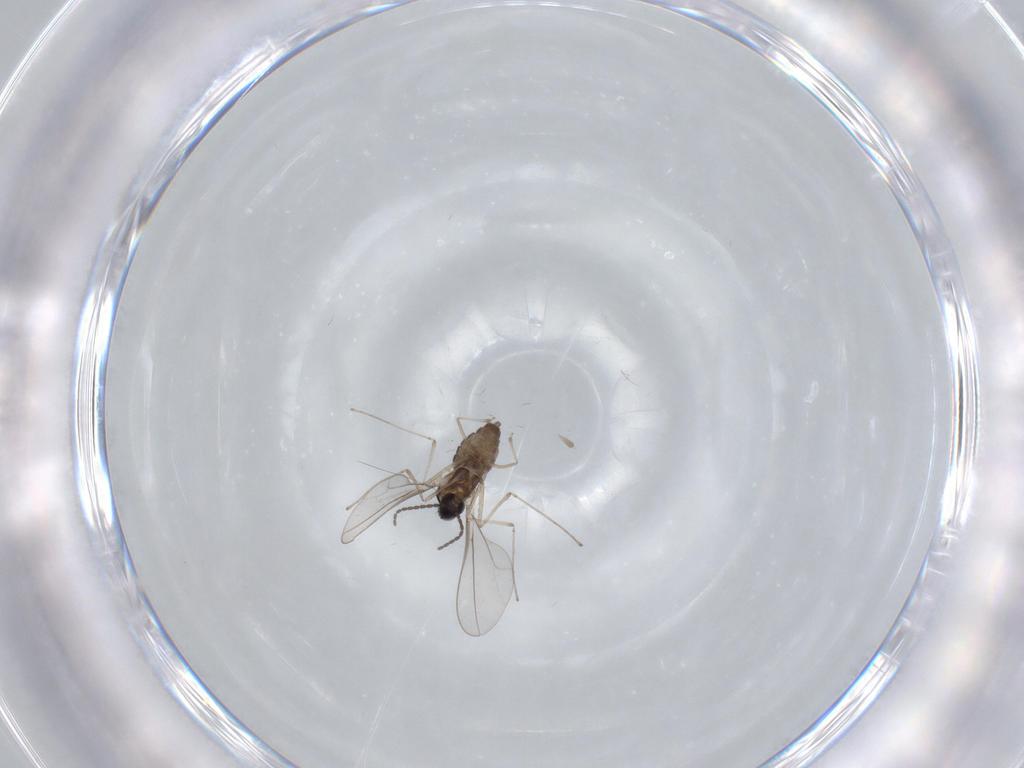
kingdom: Animalia
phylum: Arthropoda
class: Insecta
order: Diptera
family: Cecidomyiidae
